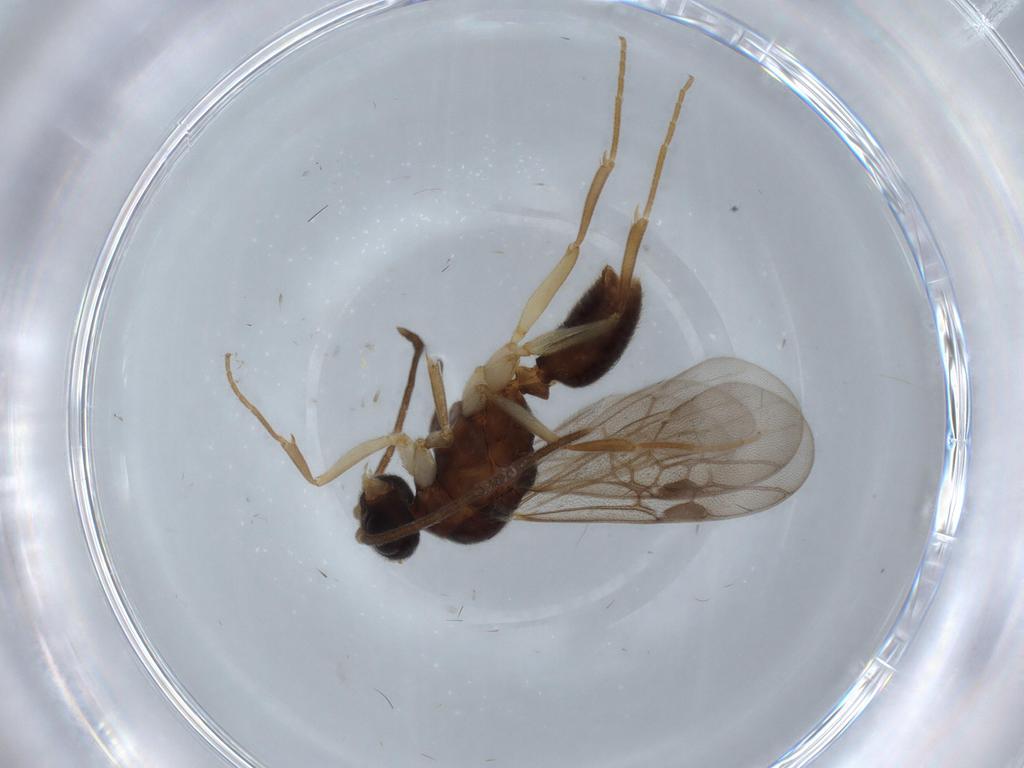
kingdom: Animalia
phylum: Arthropoda
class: Insecta
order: Hymenoptera
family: Formicidae
